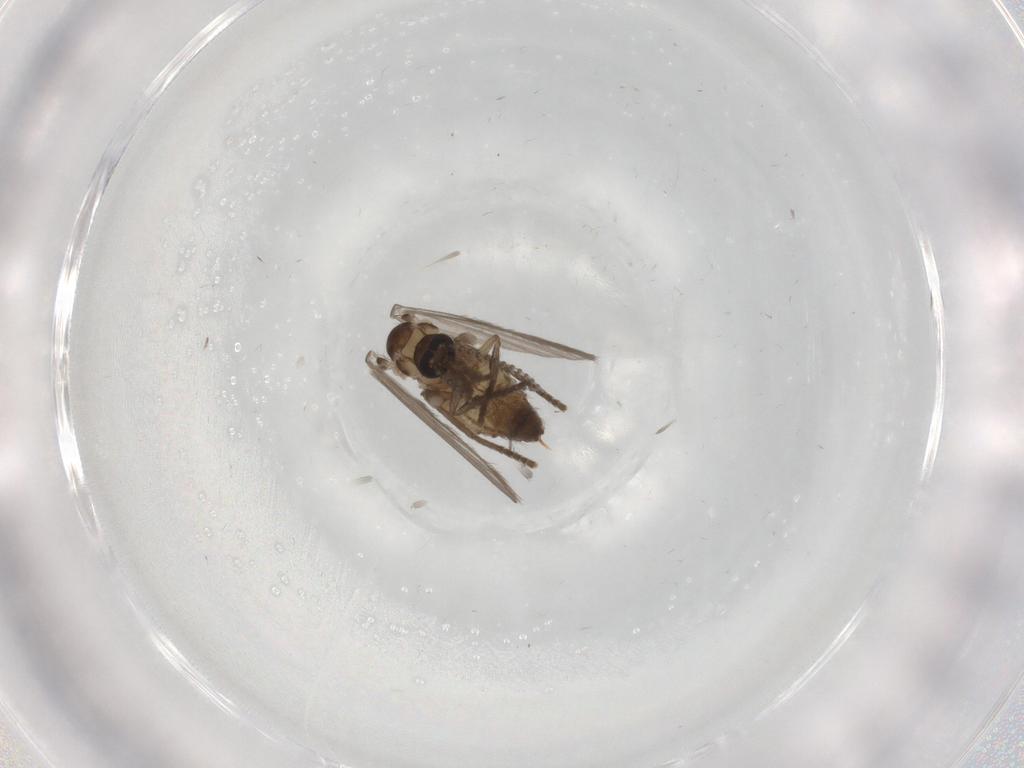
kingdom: Animalia
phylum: Arthropoda
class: Insecta
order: Diptera
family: Psychodidae
